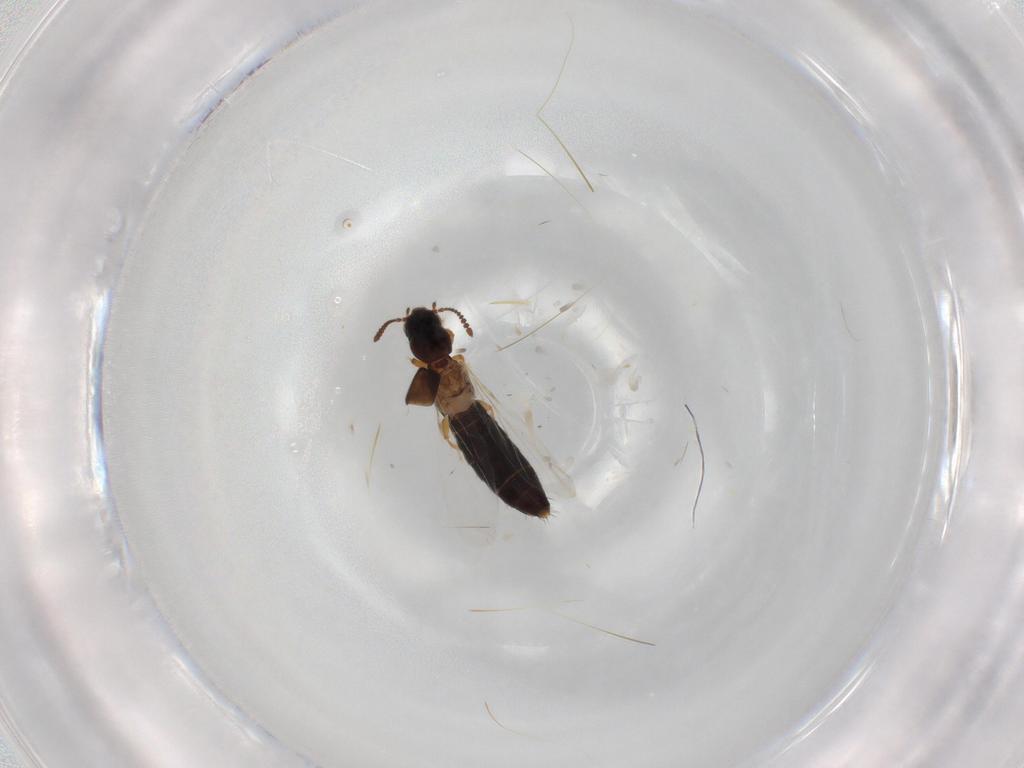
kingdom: Animalia
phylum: Arthropoda
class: Insecta
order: Coleoptera
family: Staphylinidae
